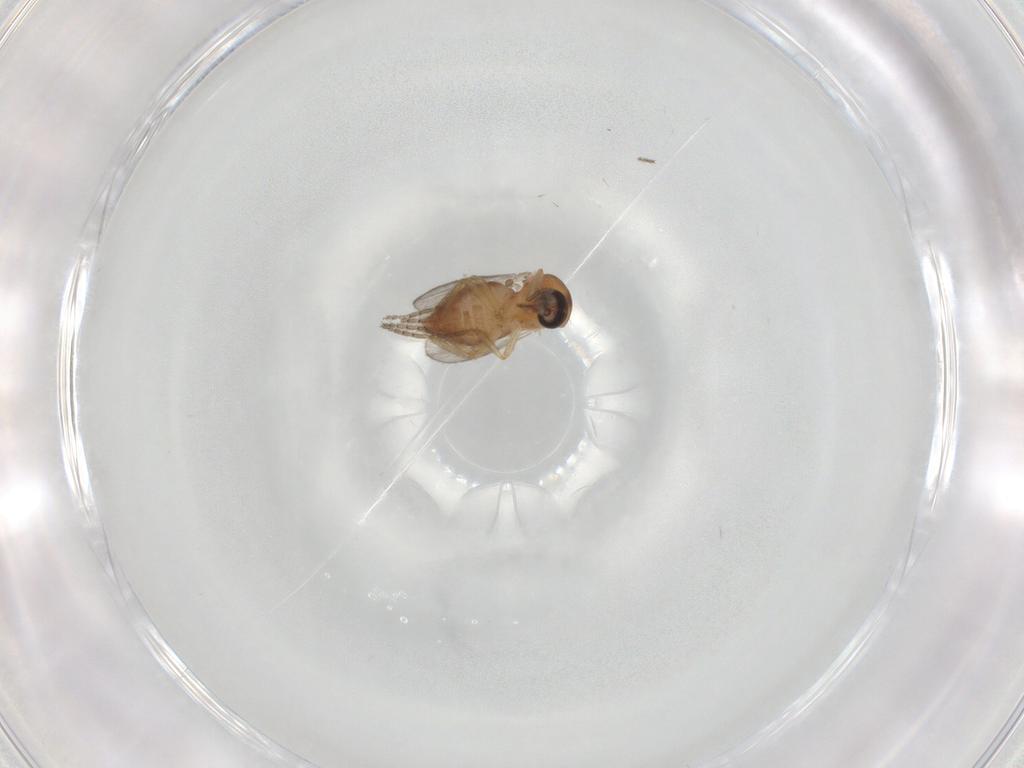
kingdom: Animalia
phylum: Arthropoda
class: Insecta
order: Diptera
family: Ceratopogonidae
